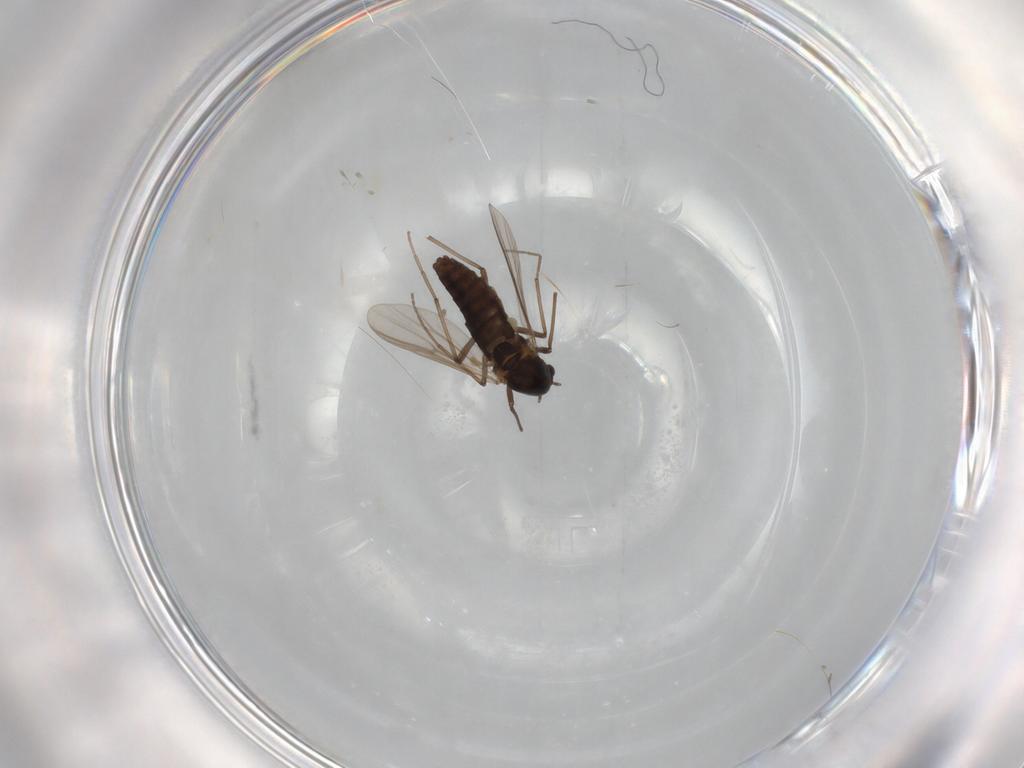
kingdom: Animalia
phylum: Arthropoda
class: Insecta
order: Diptera
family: Chironomidae
